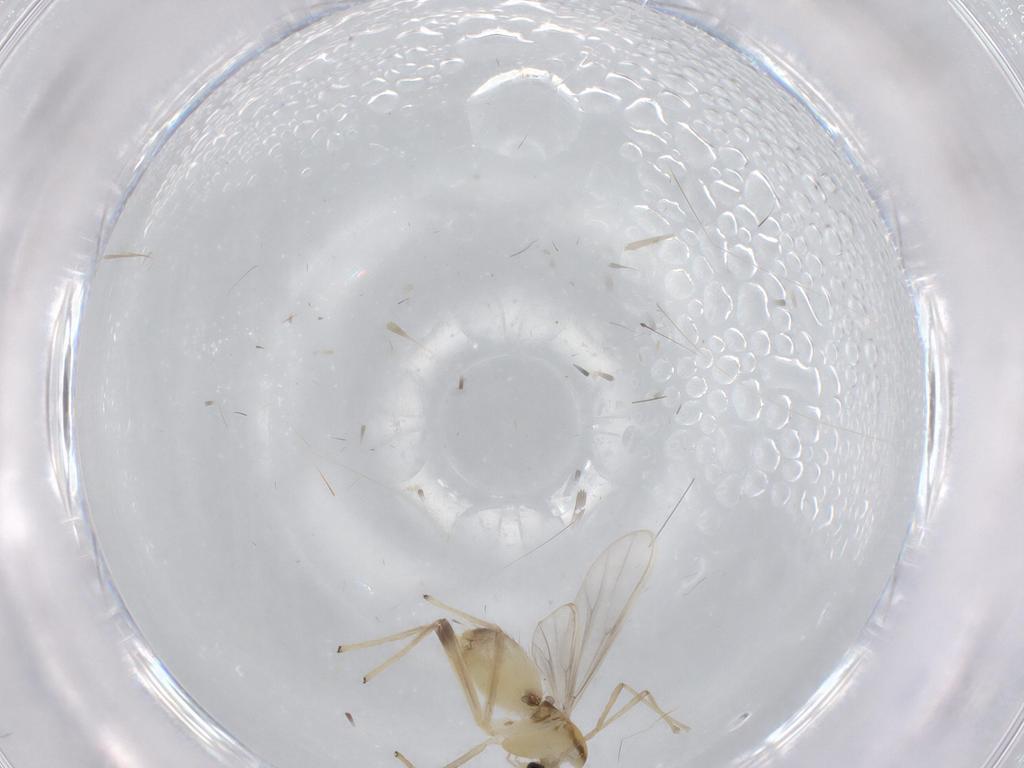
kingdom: Animalia
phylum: Arthropoda
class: Insecta
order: Diptera
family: Chironomidae
